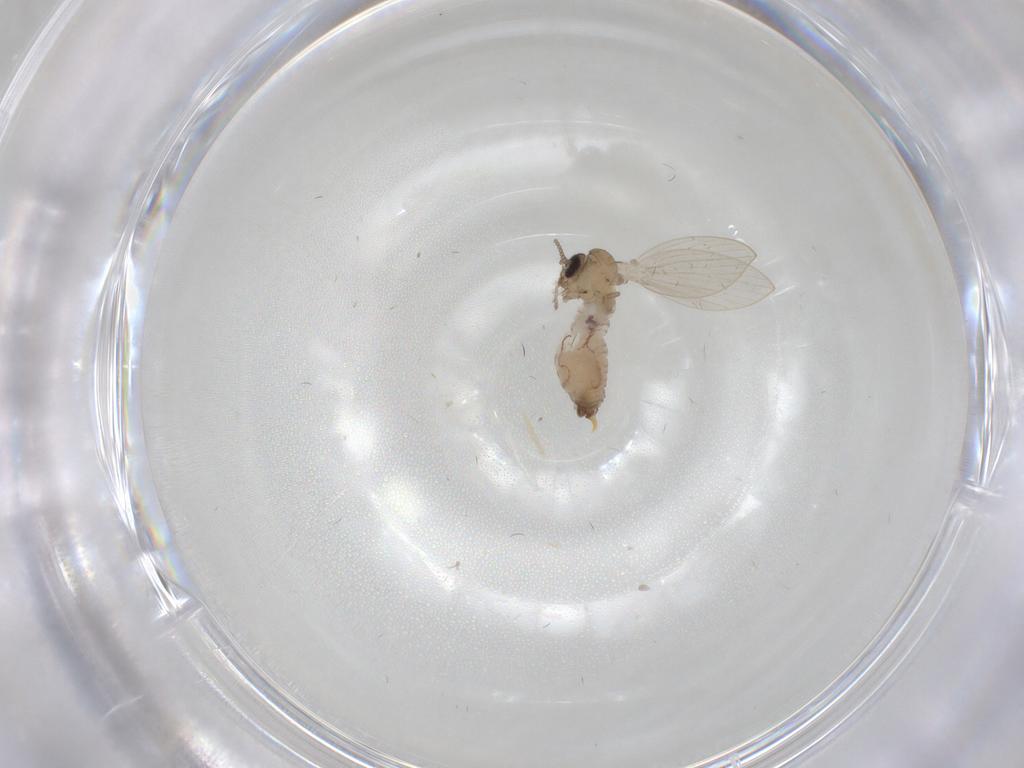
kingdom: Animalia
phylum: Arthropoda
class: Insecta
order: Diptera
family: Psychodidae
